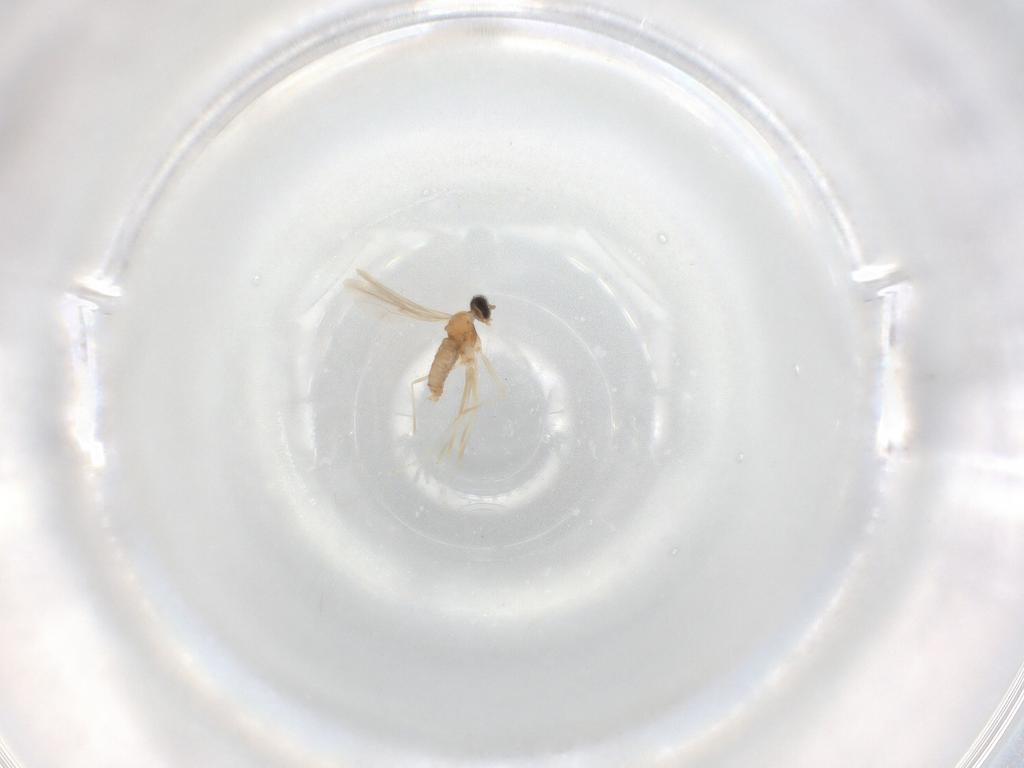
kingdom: Animalia
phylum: Arthropoda
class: Insecta
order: Diptera
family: Cecidomyiidae
